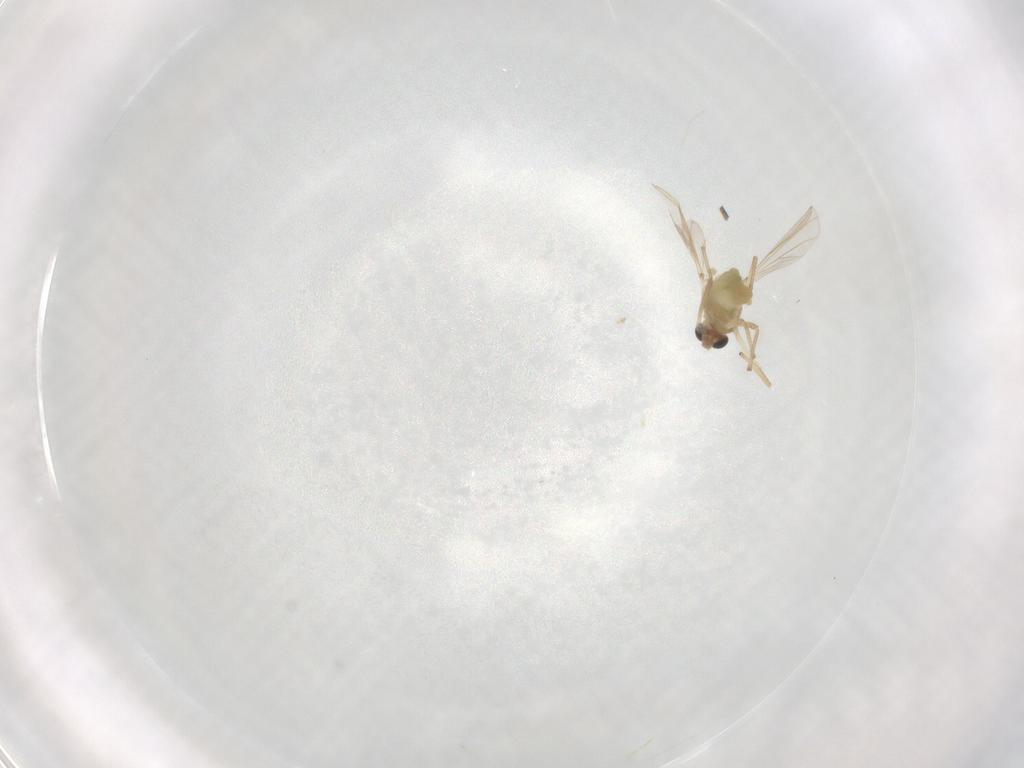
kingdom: Animalia
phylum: Arthropoda
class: Insecta
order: Diptera
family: Chironomidae
